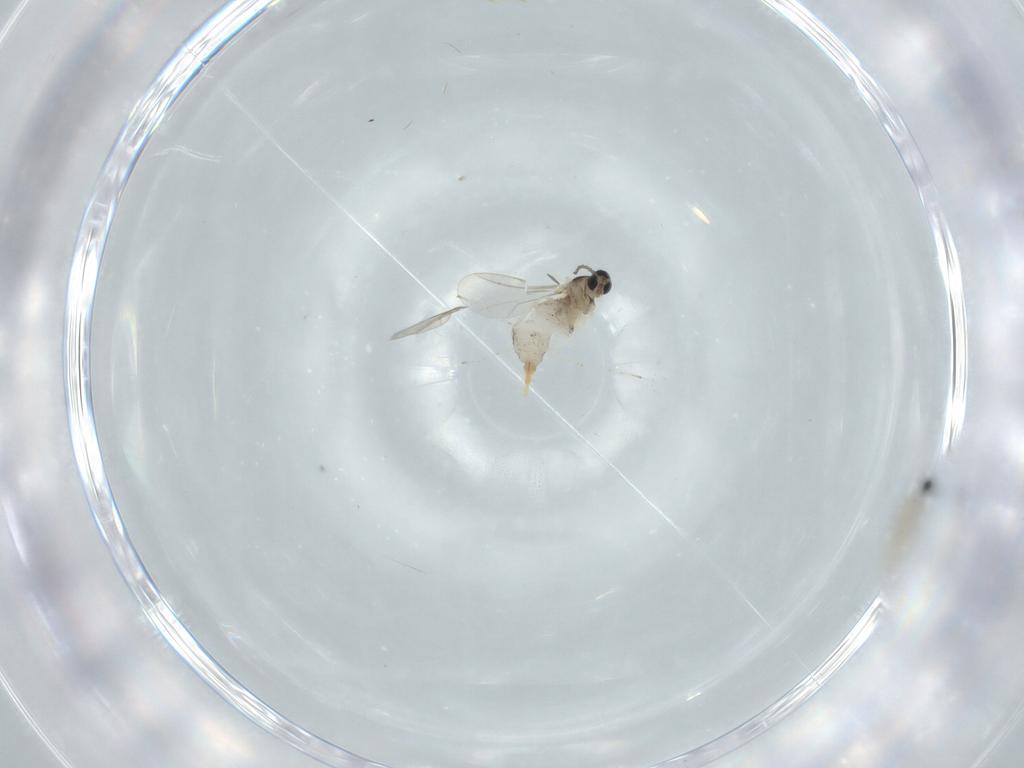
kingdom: Animalia
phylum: Arthropoda
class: Insecta
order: Diptera
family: Cecidomyiidae
